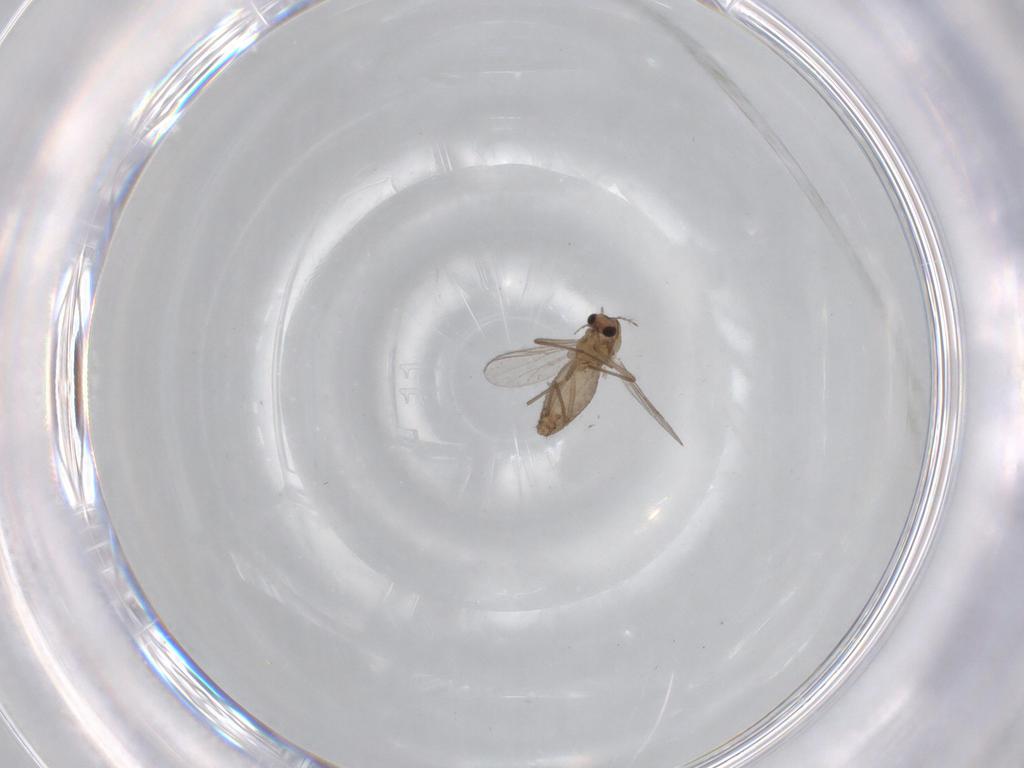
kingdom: Animalia
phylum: Arthropoda
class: Insecta
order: Diptera
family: Chironomidae
